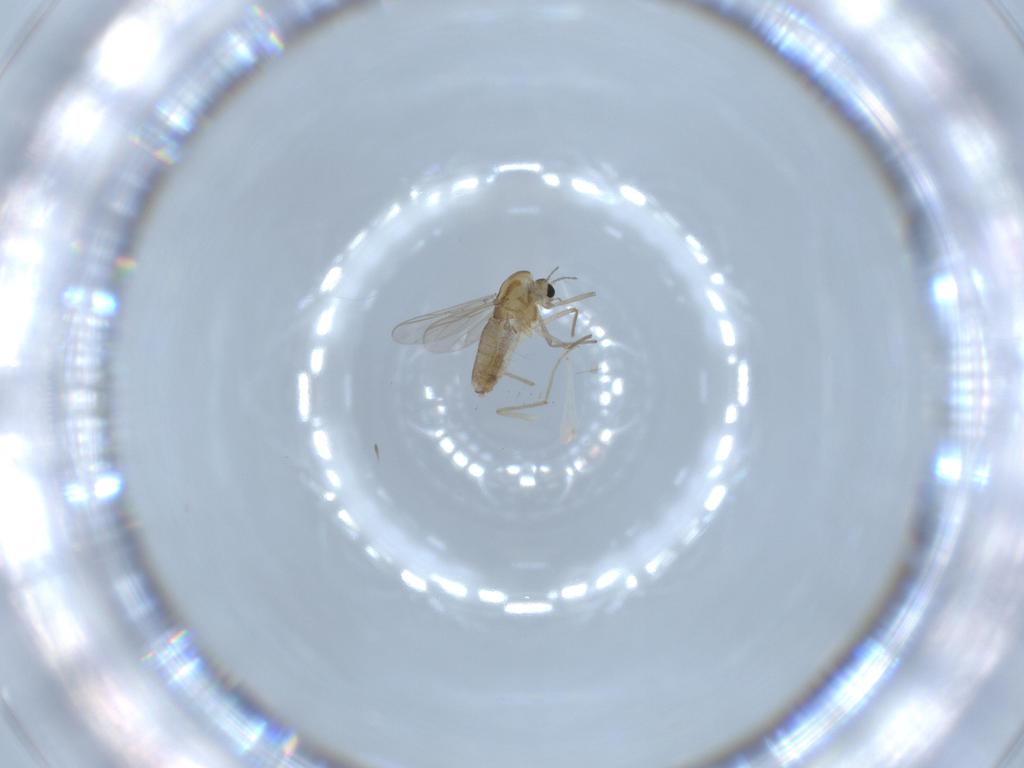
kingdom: Animalia
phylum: Arthropoda
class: Insecta
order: Diptera
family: Chironomidae
